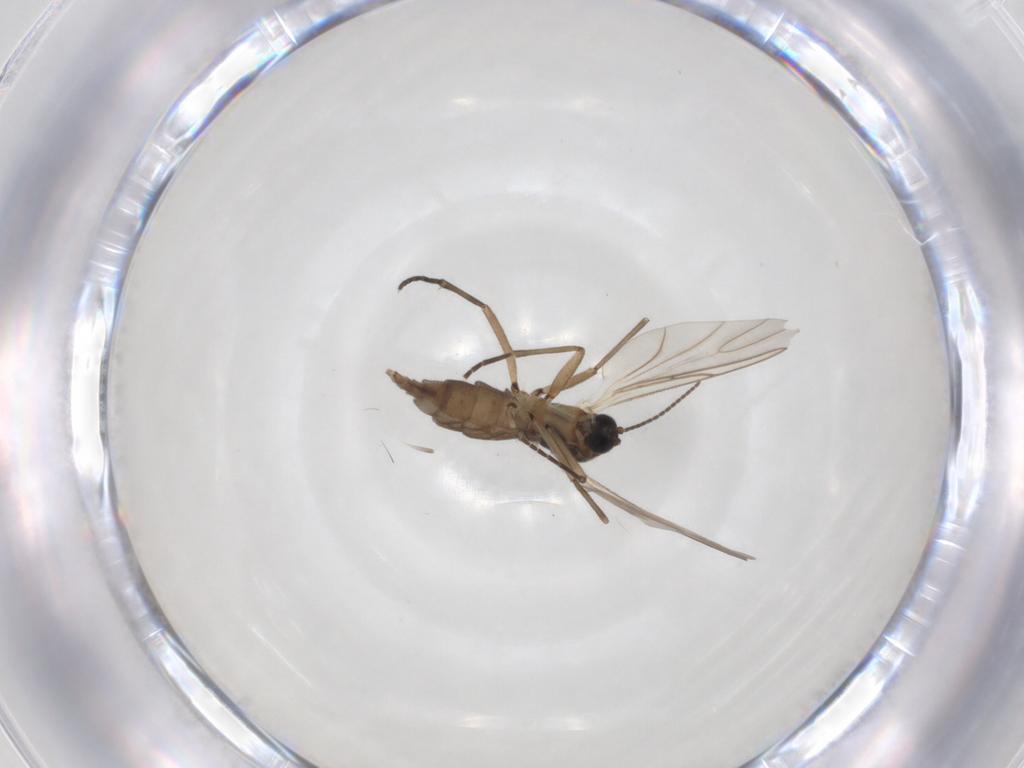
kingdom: Animalia
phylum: Arthropoda
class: Insecta
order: Diptera
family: Empididae
